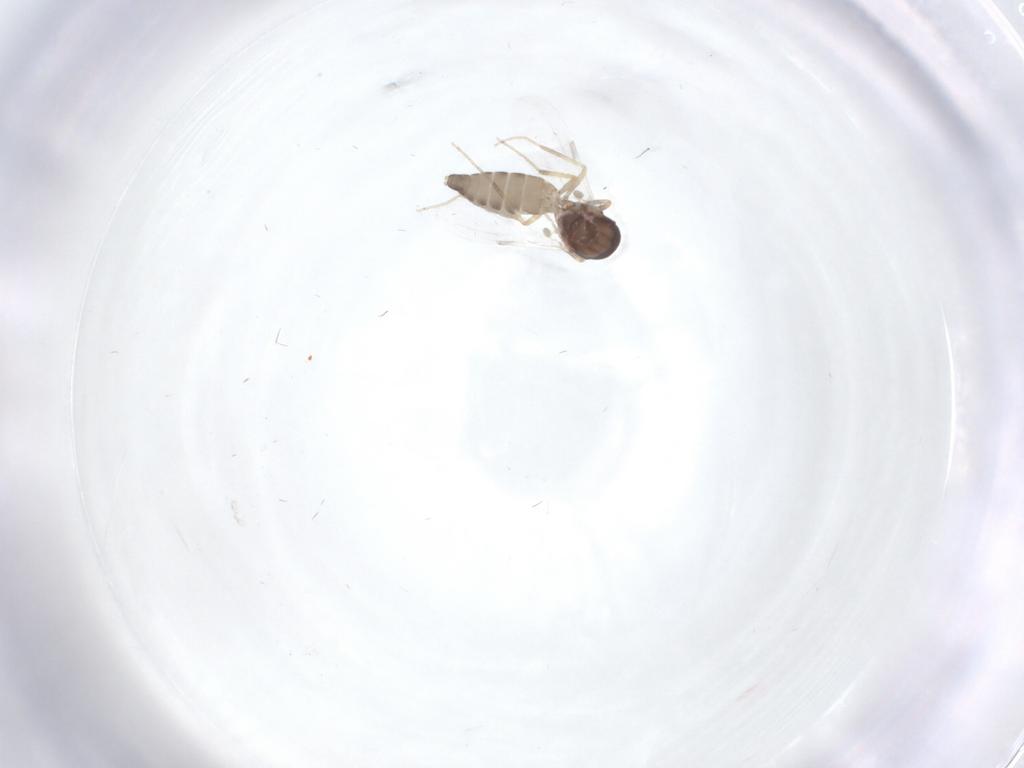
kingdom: Animalia
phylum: Arthropoda
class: Insecta
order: Diptera
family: Ceratopogonidae
